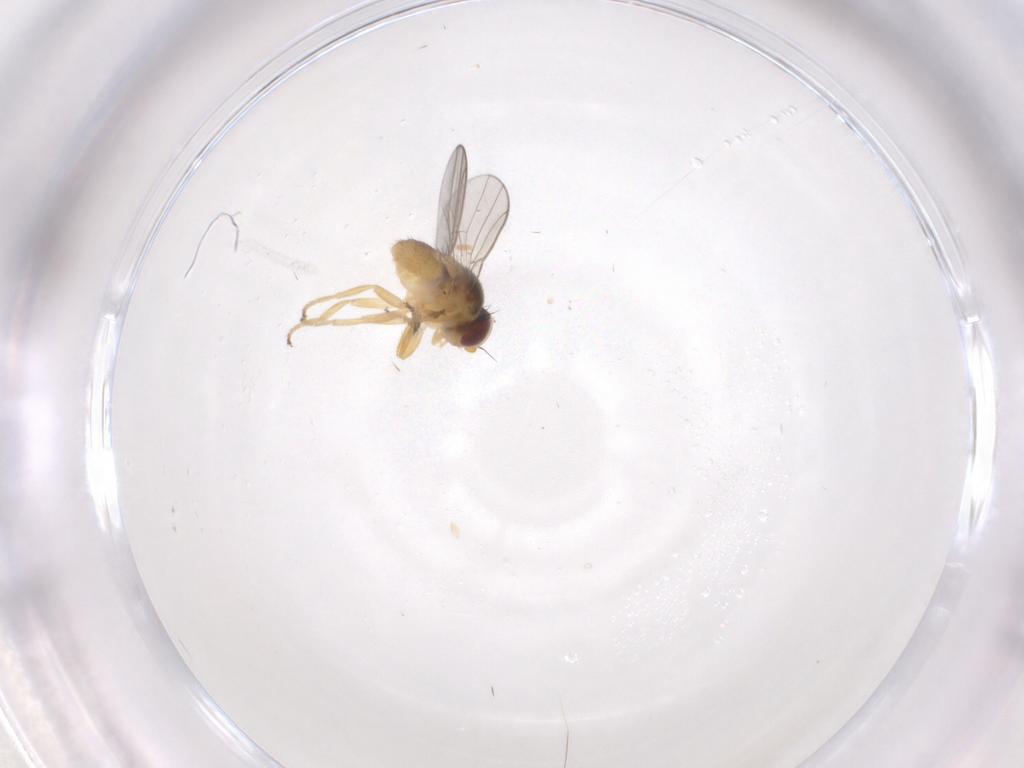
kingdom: Animalia
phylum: Arthropoda
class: Insecta
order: Diptera
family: Chloropidae
